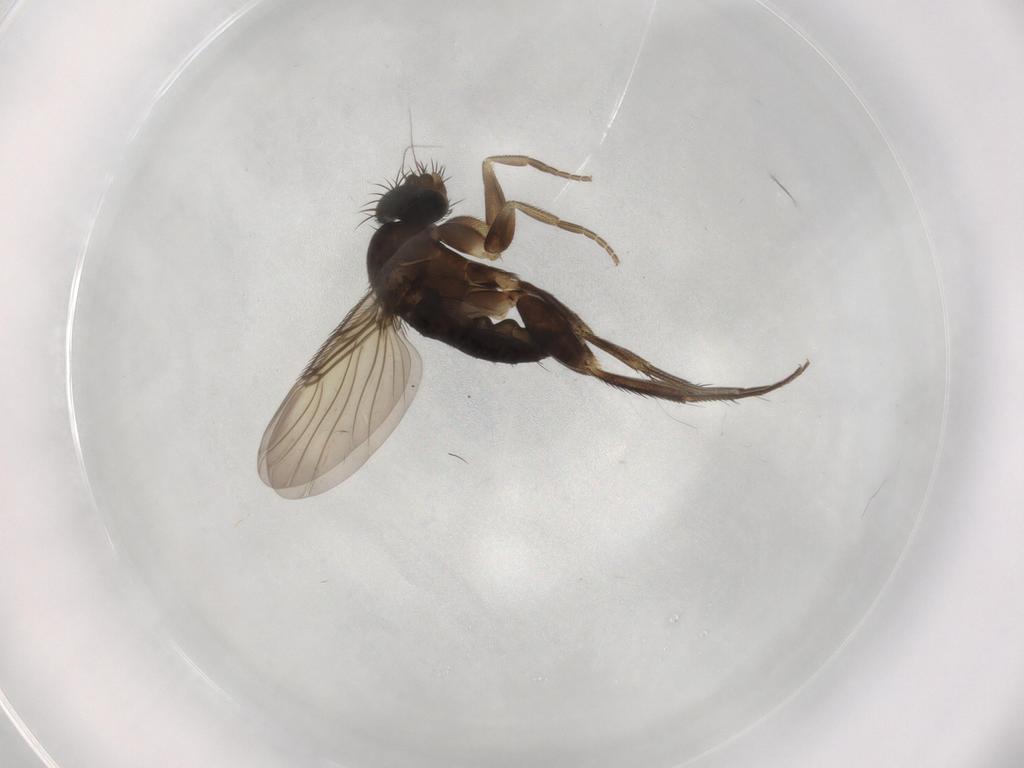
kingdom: Animalia
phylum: Arthropoda
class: Insecta
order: Diptera
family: Phoridae
